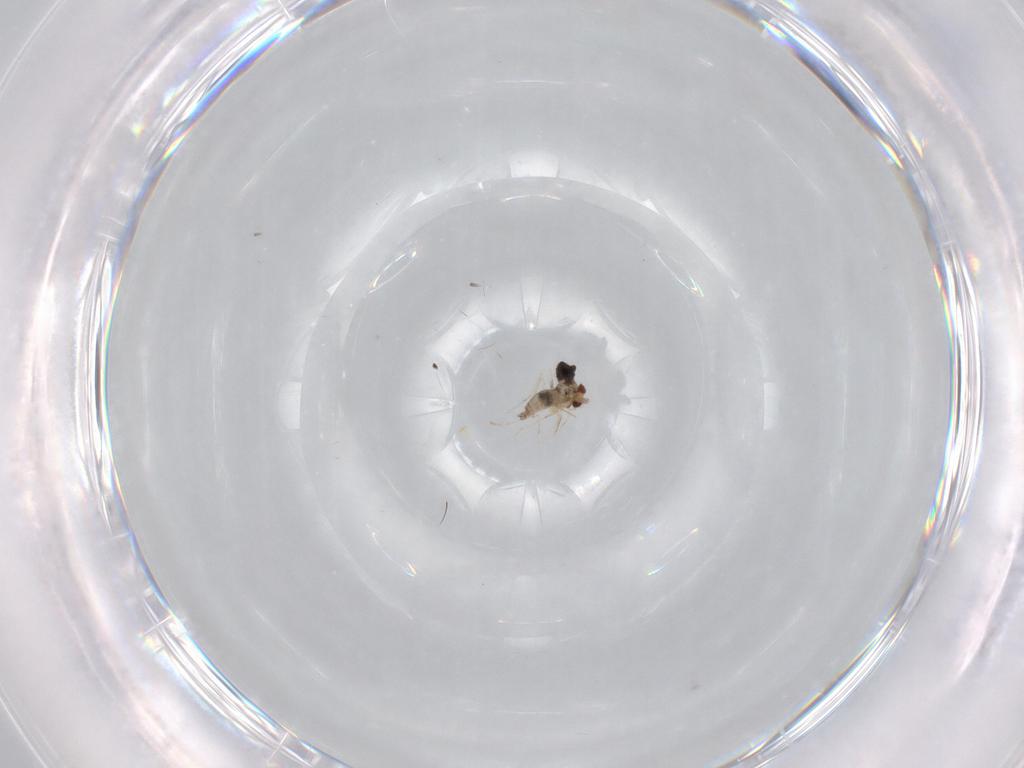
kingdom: Animalia
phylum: Arthropoda
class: Insecta
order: Diptera
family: Cecidomyiidae
